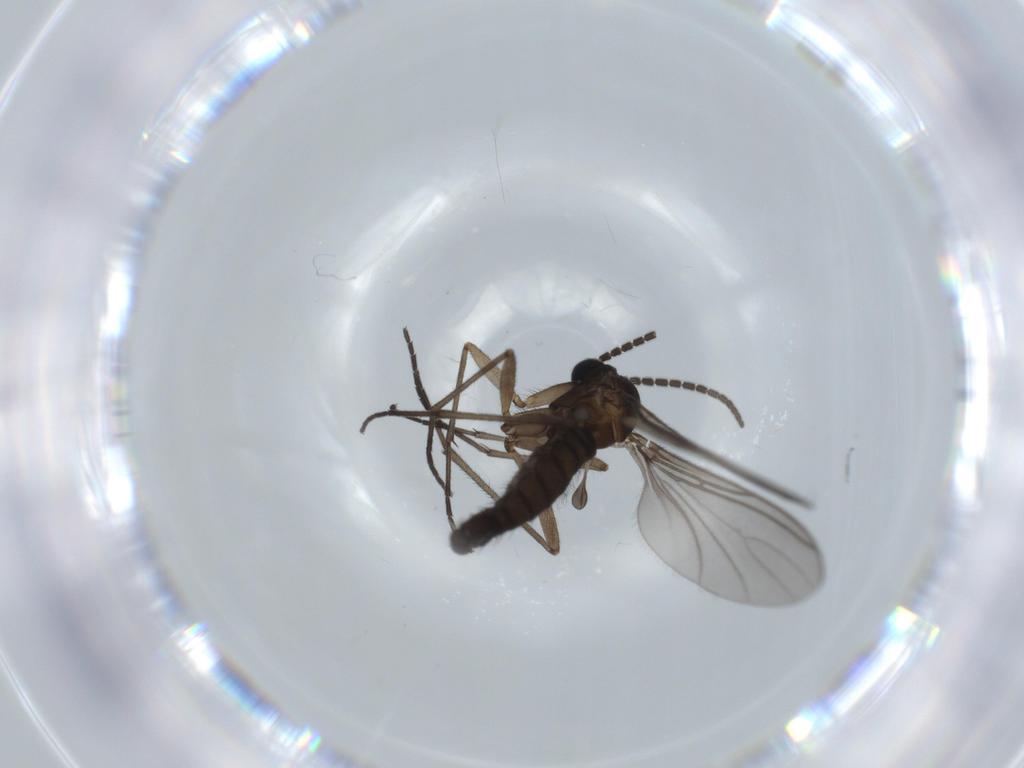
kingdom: Animalia
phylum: Arthropoda
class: Insecta
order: Diptera
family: Sciaridae
